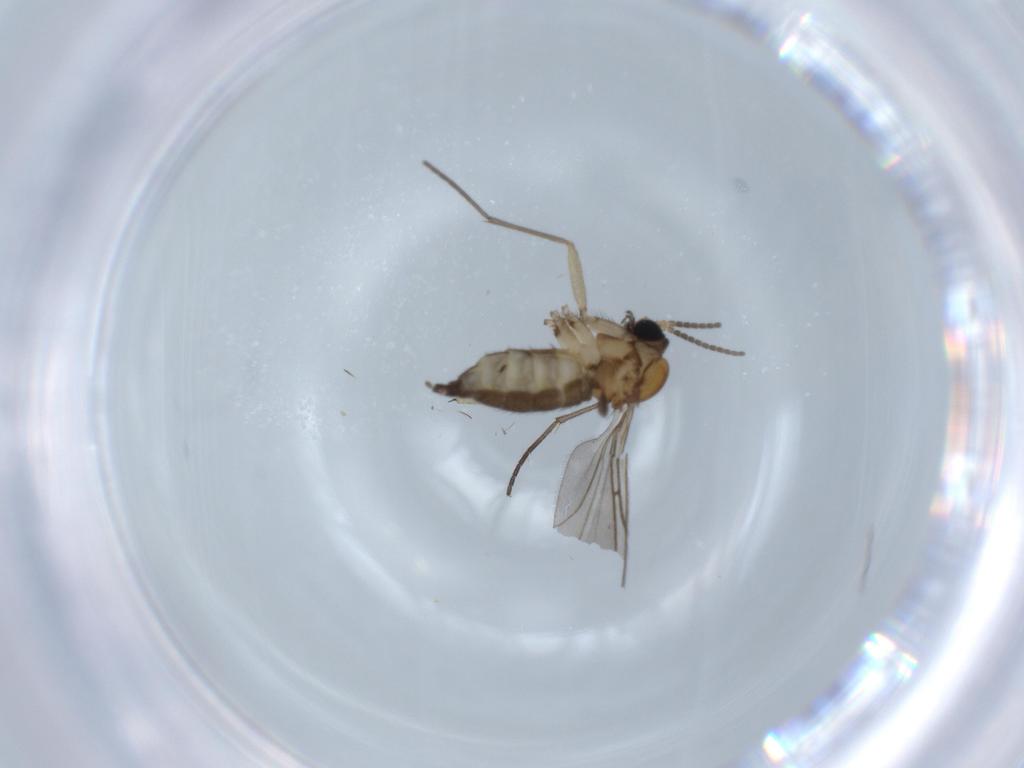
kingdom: Animalia
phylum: Arthropoda
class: Insecta
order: Diptera
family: Sciaridae
